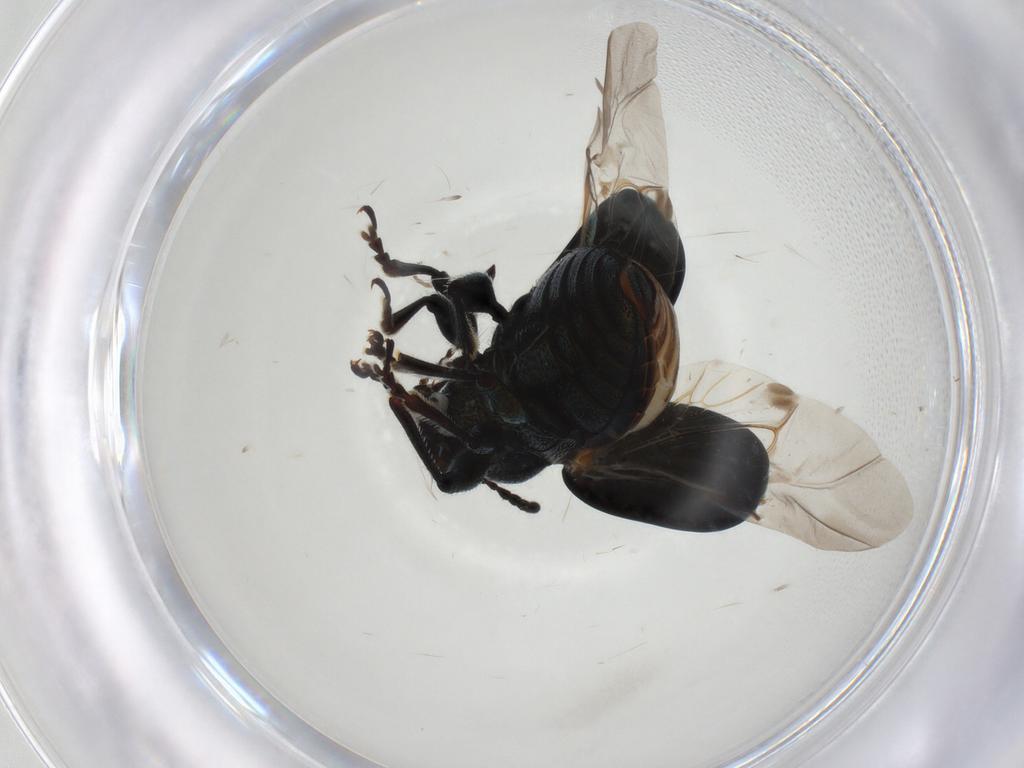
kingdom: Animalia
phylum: Arthropoda
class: Insecta
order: Coleoptera
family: Chrysomelidae
